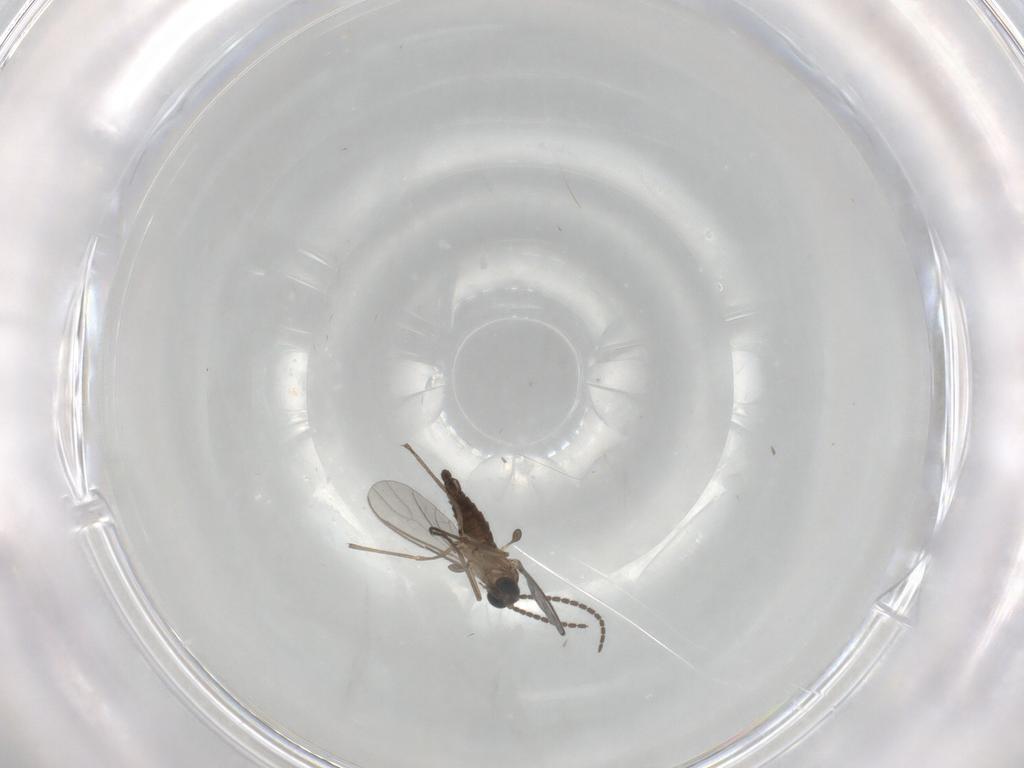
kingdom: Animalia
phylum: Arthropoda
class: Insecta
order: Diptera
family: Sciaridae
